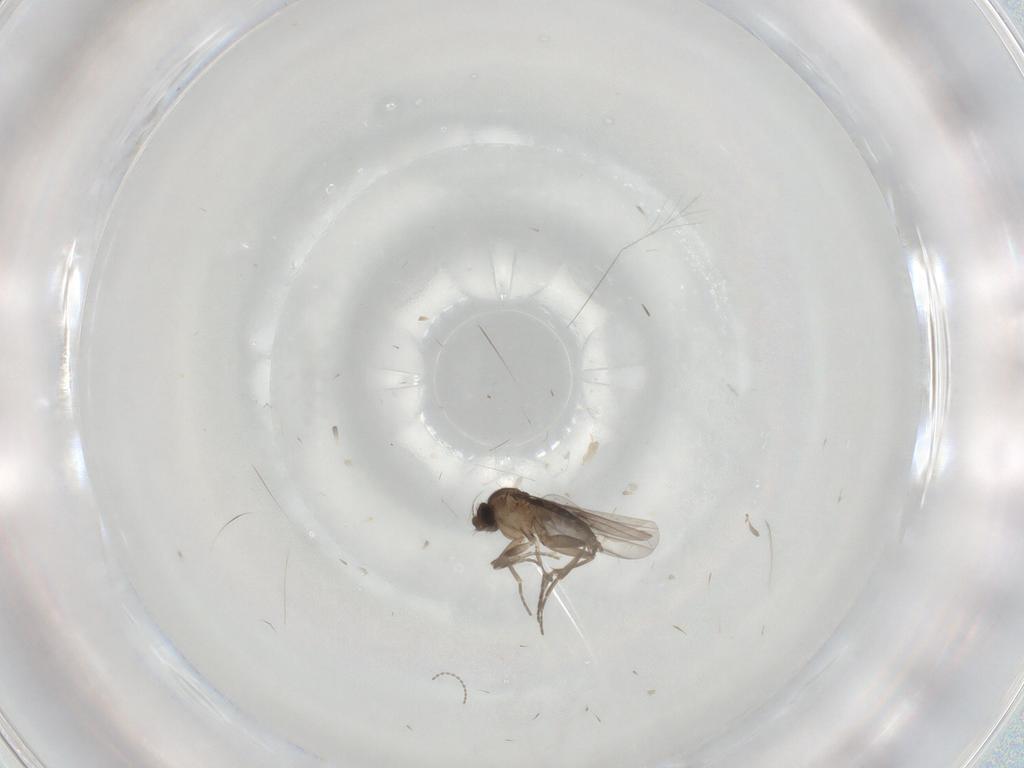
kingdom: Animalia
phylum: Arthropoda
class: Insecta
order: Diptera
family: Cecidomyiidae
